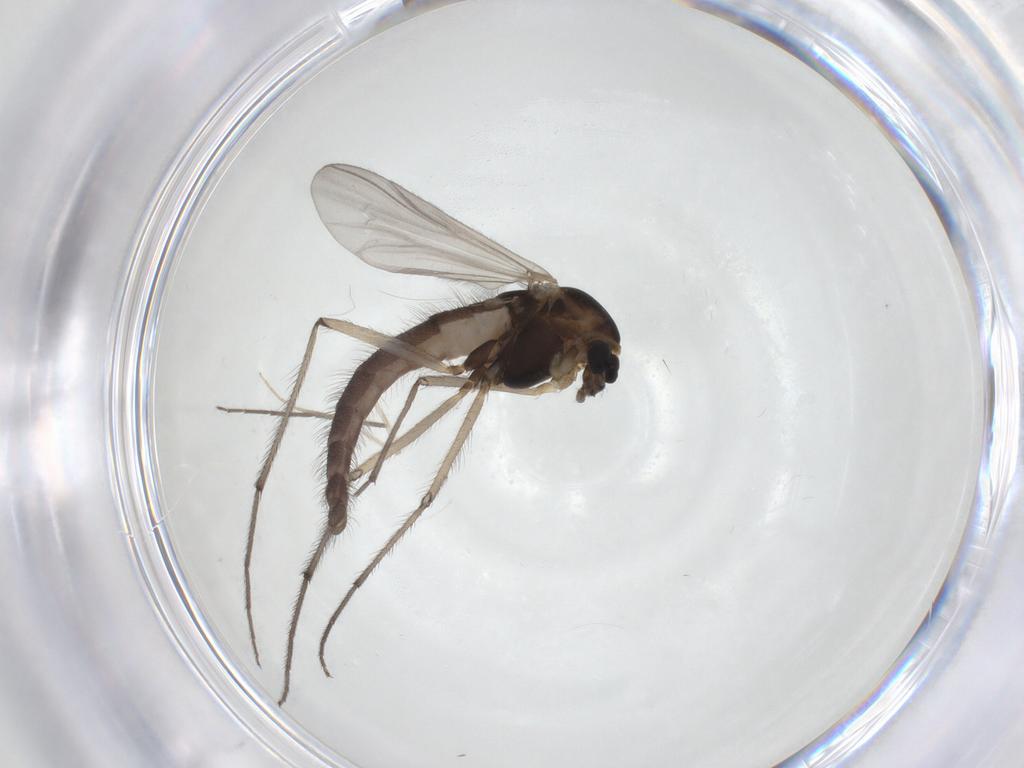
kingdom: Animalia
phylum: Arthropoda
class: Insecta
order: Diptera
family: Chironomidae
